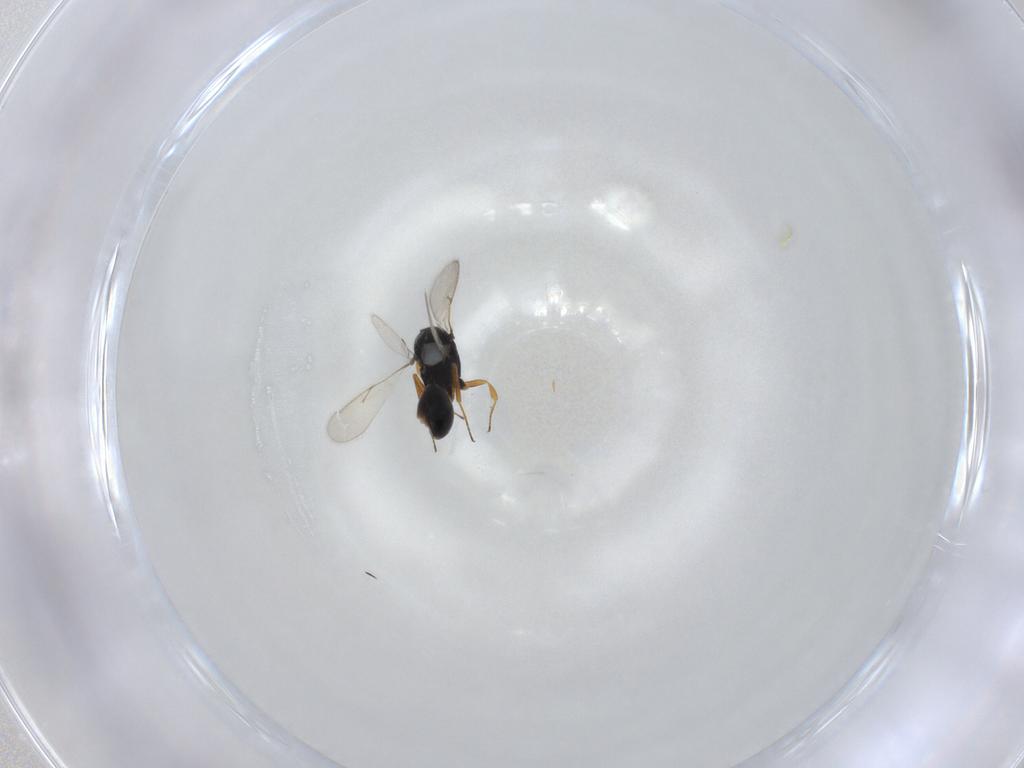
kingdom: Animalia
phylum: Arthropoda
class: Insecta
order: Hymenoptera
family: Scelionidae
